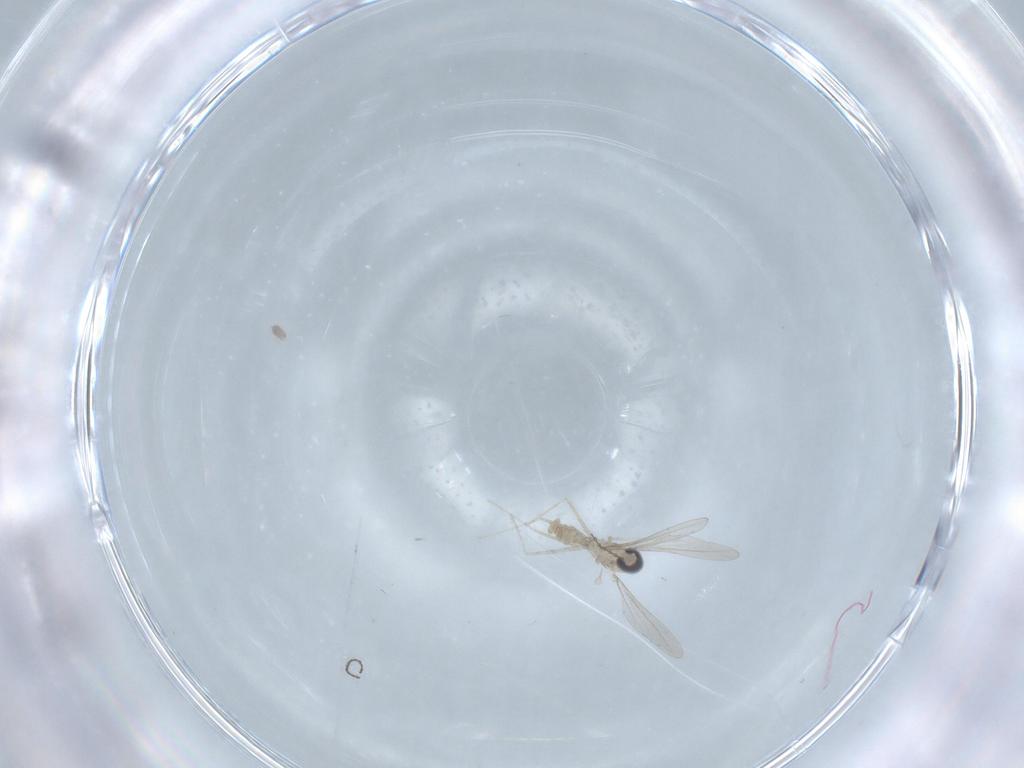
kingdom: Animalia
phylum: Arthropoda
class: Insecta
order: Diptera
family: Cecidomyiidae
